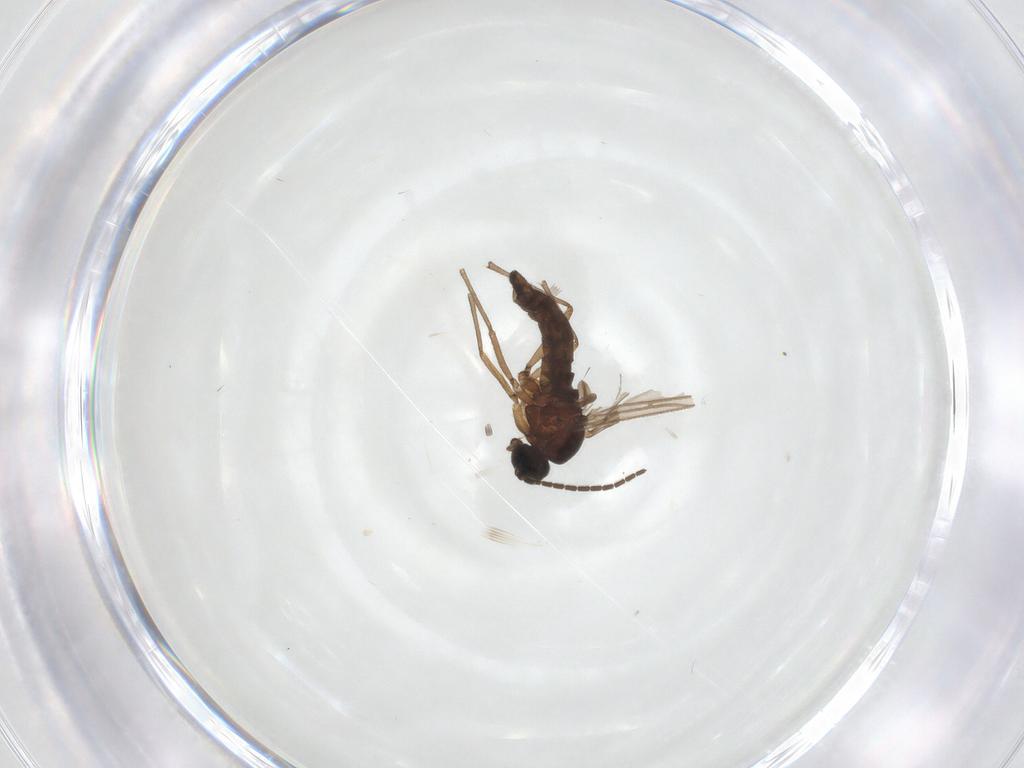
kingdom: Animalia
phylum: Arthropoda
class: Insecta
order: Diptera
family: Sciaridae
